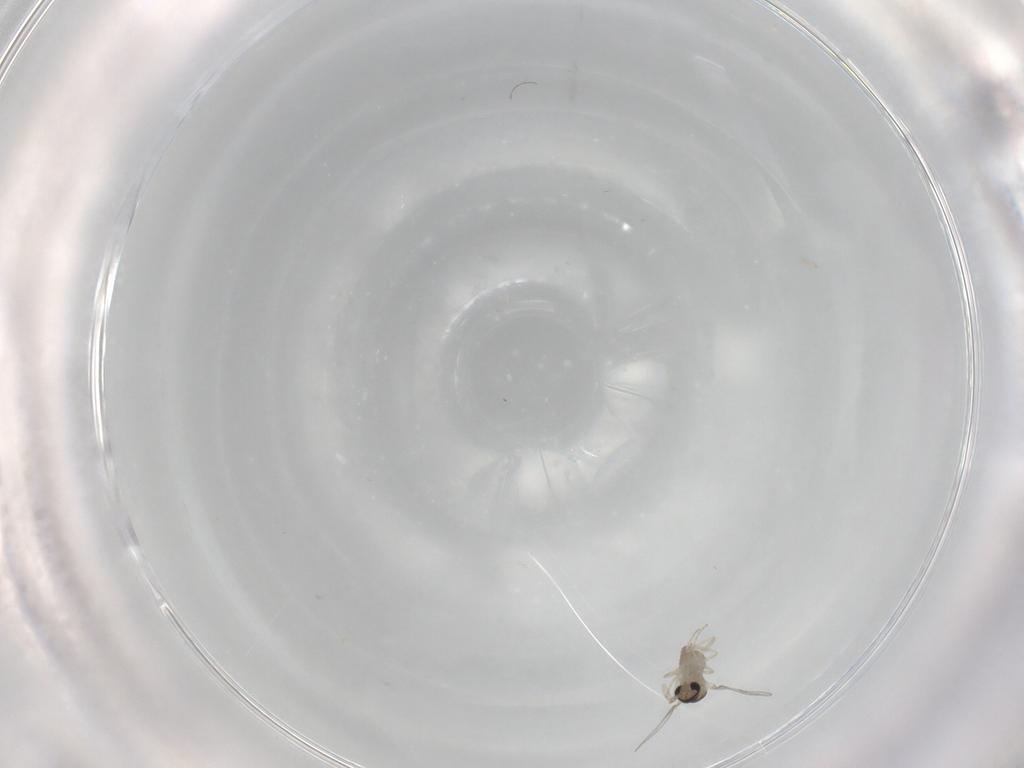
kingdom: Animalia
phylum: Arthropoda
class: Insecta
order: Diptera
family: Cecidomyiidae
